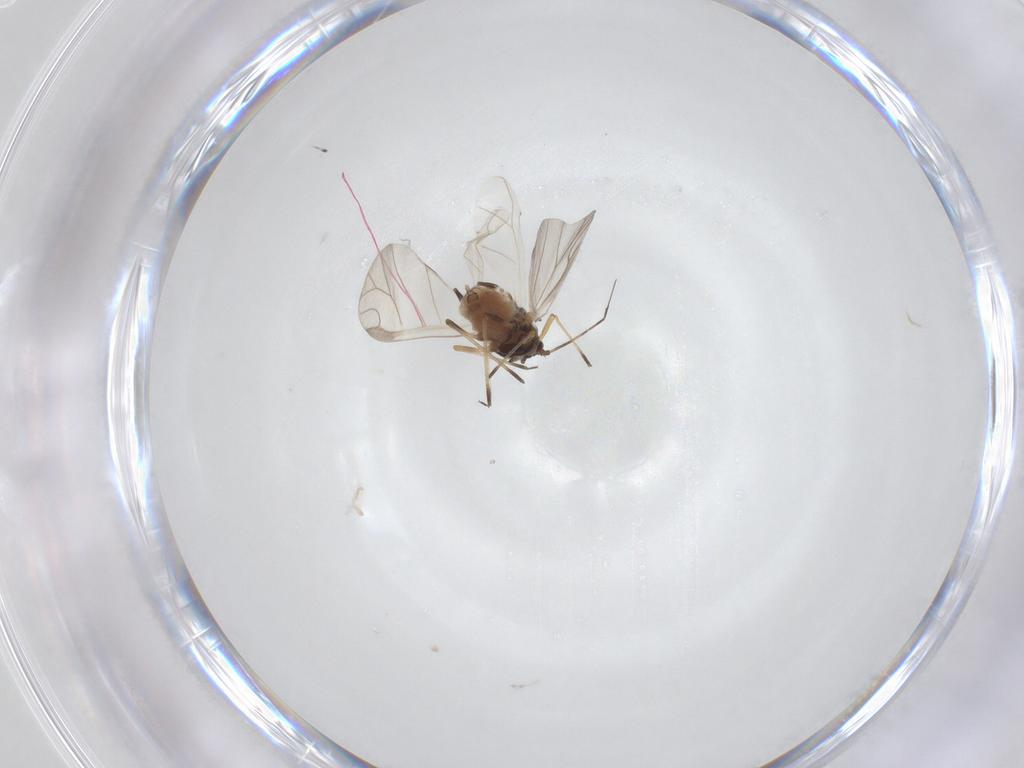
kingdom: Animalia
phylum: Arthropoda
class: Insecta
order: Hemiptera
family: Aphididae
